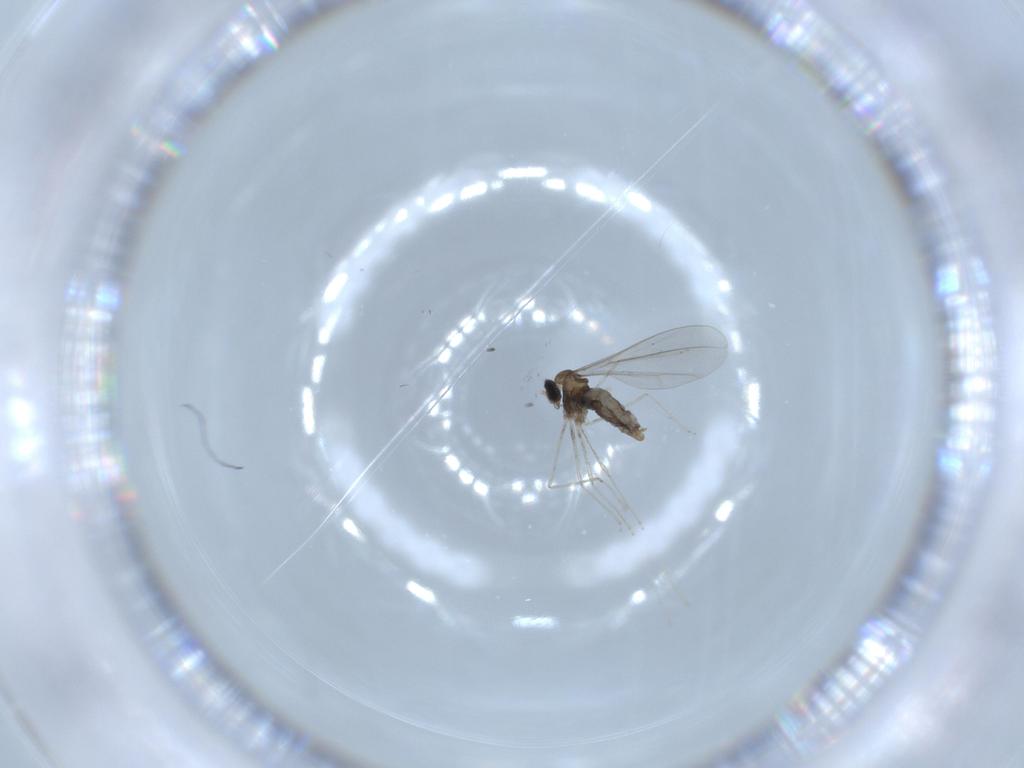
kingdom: Animalia
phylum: Arthropoda
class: Insecta
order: Diptera
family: Cecidomyiidae
